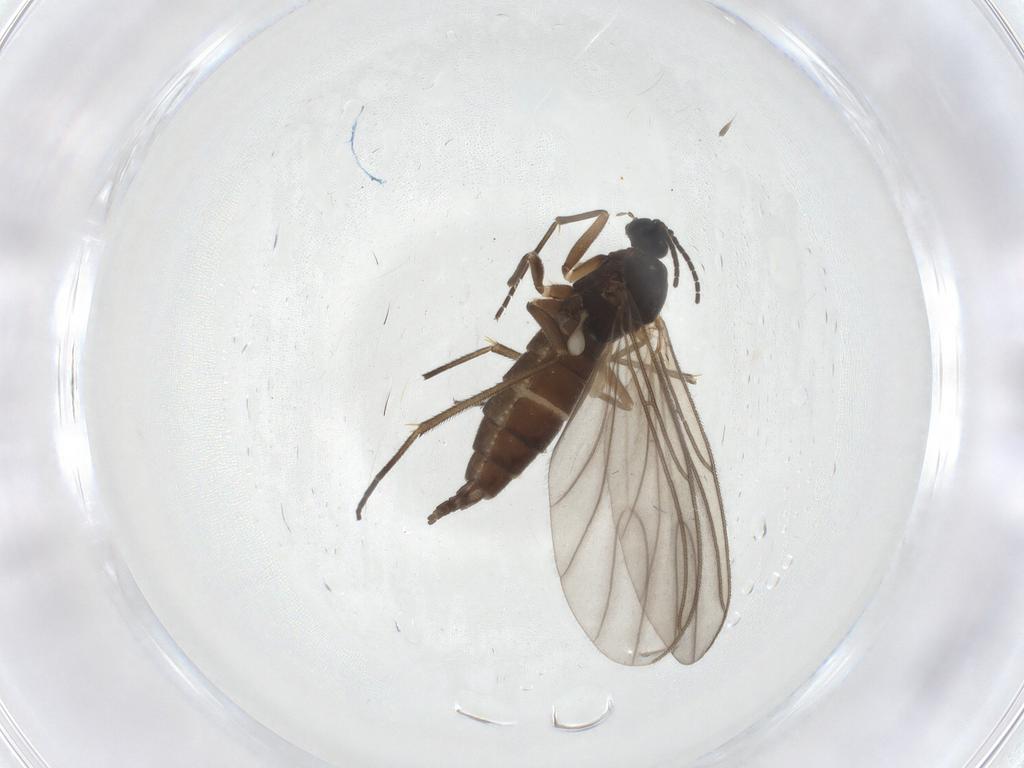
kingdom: Animalia
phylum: Arthropoda
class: Insecta
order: Diptera
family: Sciaridae
